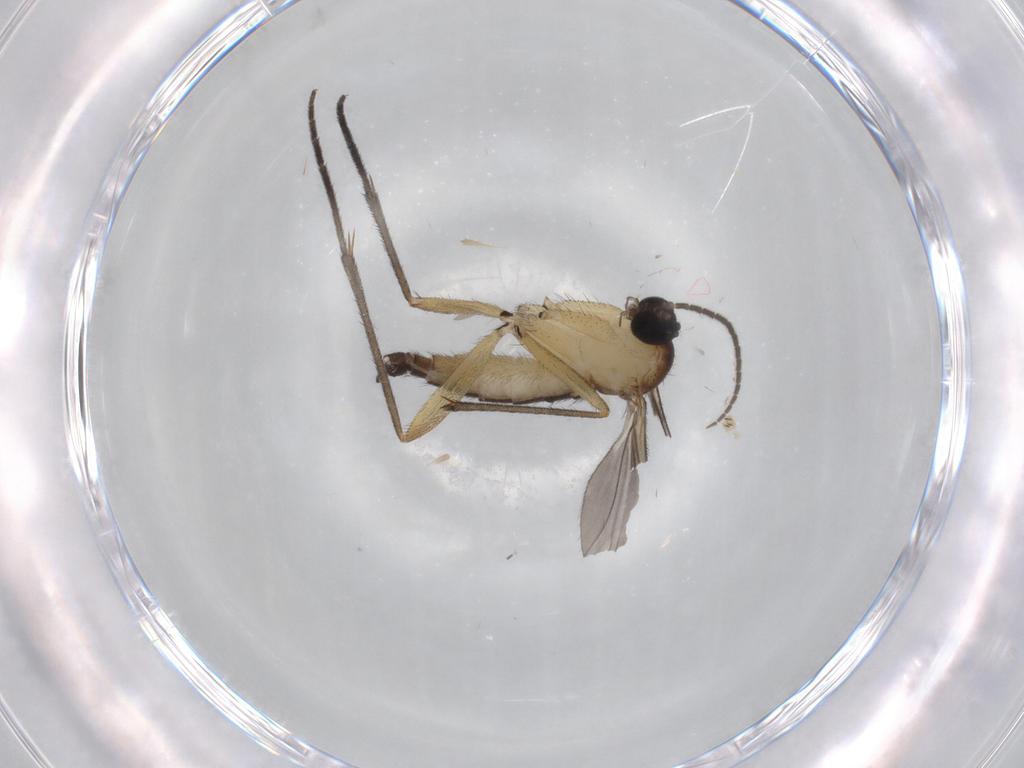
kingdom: Animalia
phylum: Arthropoda
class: Insecta
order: Diptera
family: Sciaridae
